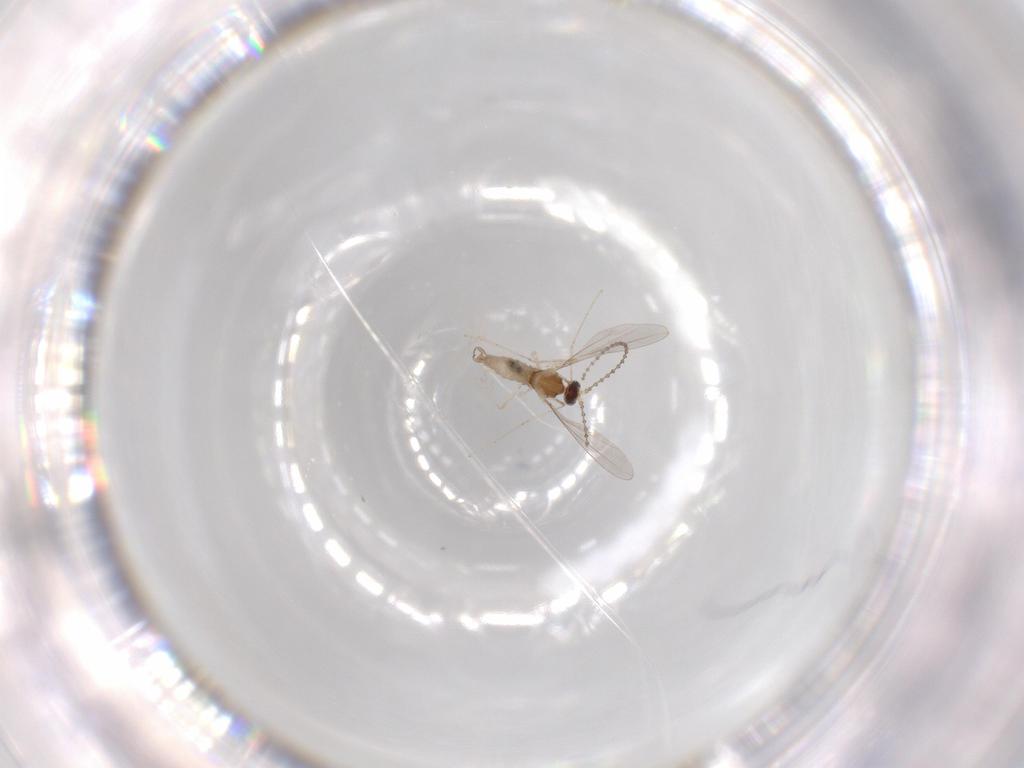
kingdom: Animalia
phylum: Arthropoda
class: Insecta
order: Diptera
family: Cecidomyiidae
